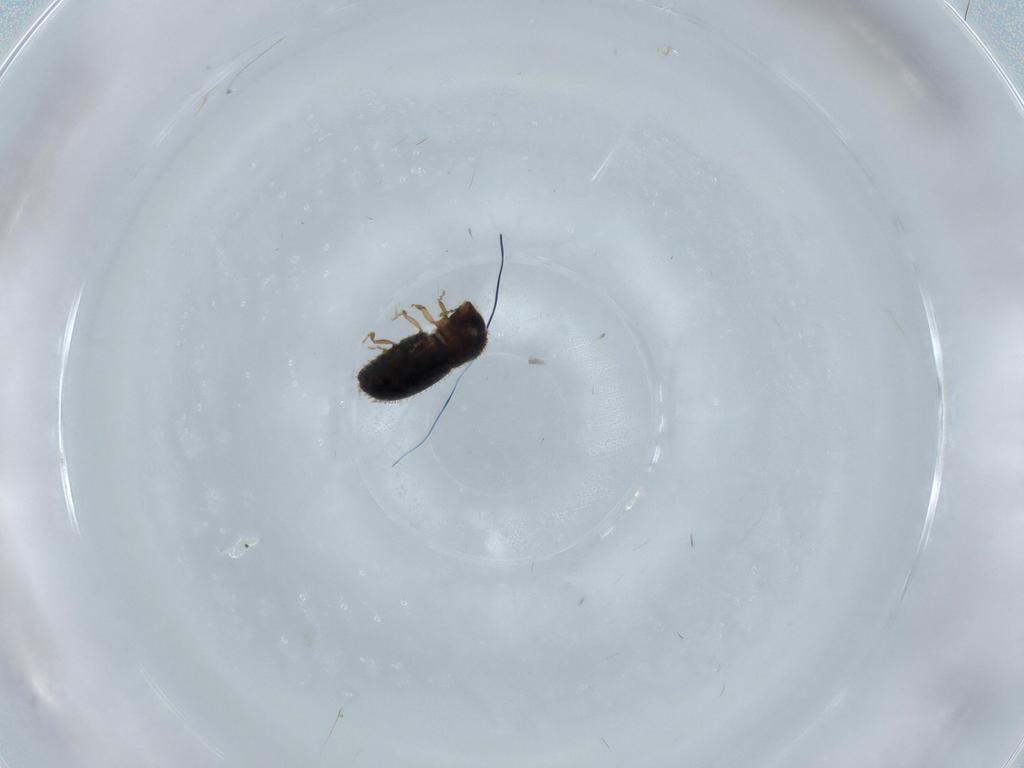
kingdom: Animalia
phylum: Arthropoda
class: Insecta
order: Coleoptera
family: Curculionidae
